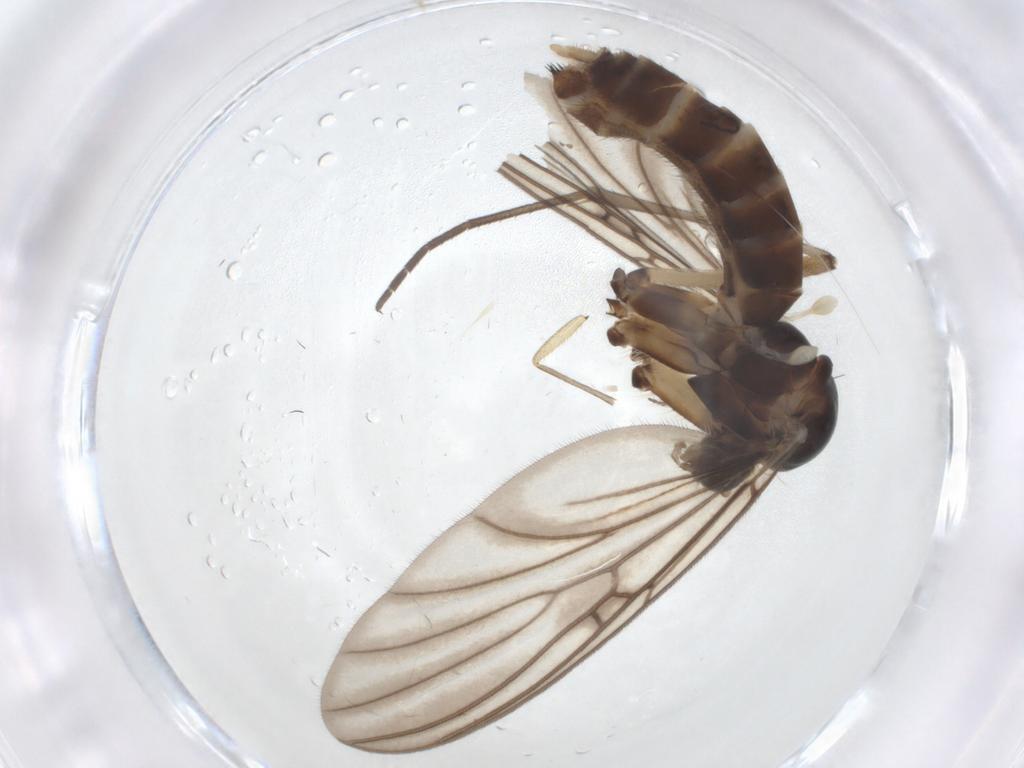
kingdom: Animalia
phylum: Arthropoda
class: Insecta
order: Diptera
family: Mycetophilidae
